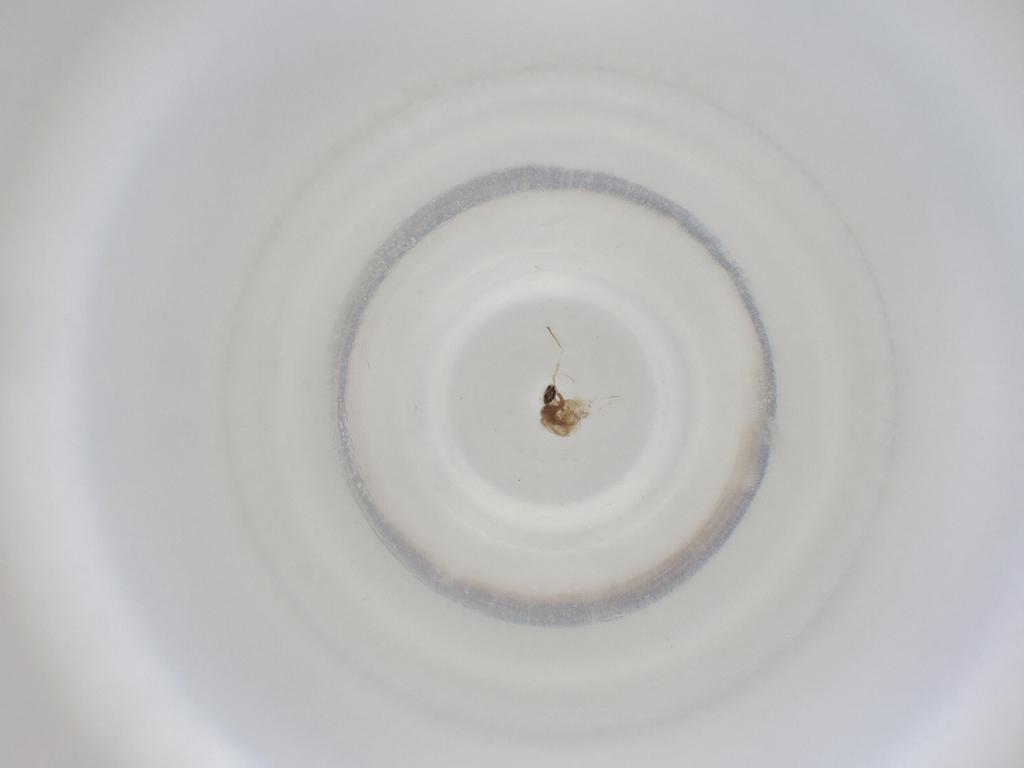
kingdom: Animalia
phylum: Arthropoda
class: Insecta
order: Diptera
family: Cecidomyiidae
